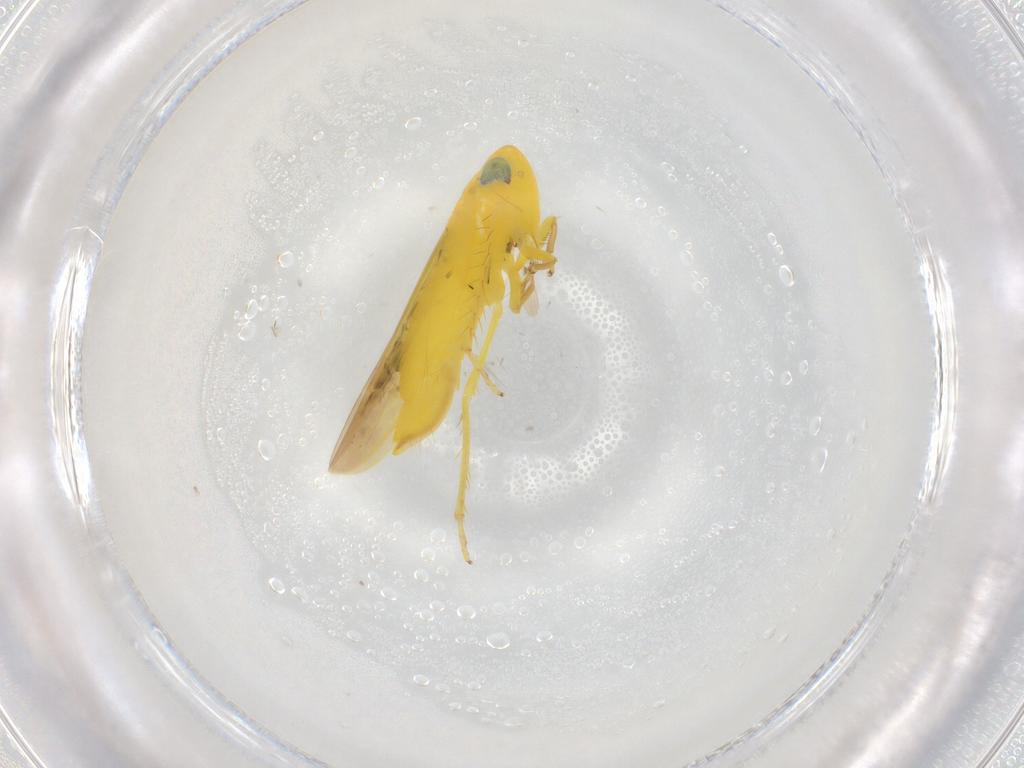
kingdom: Animalia
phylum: Arthropoda
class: Insecta
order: Hemiptera
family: Cicadellidae
